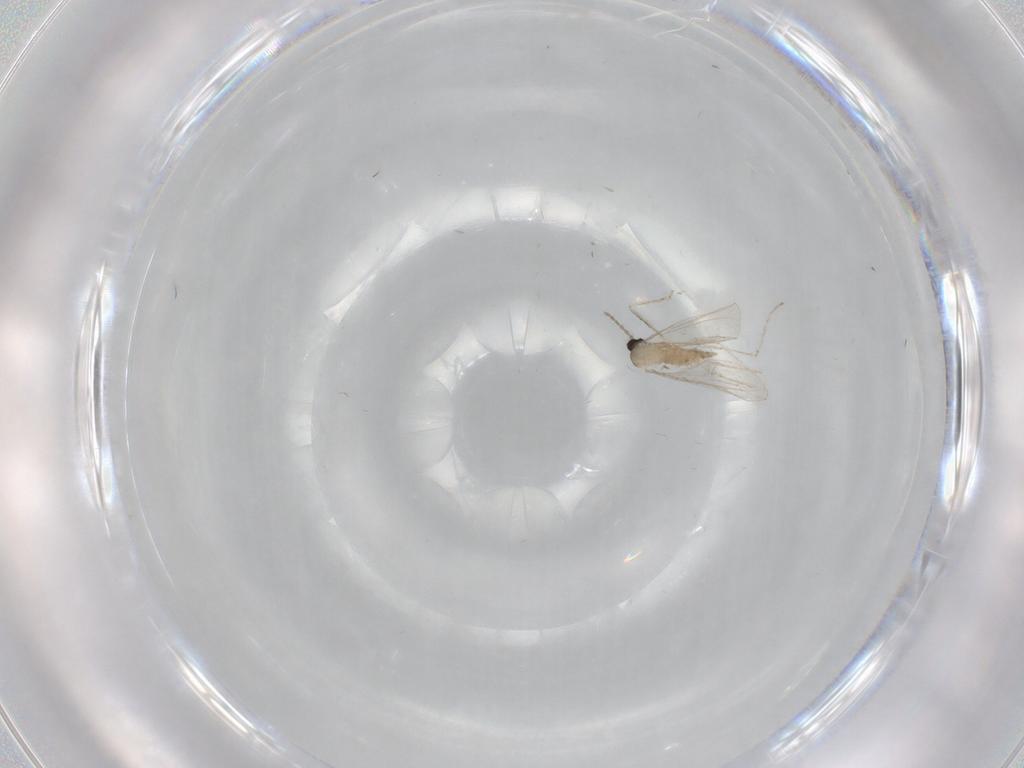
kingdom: Animalia
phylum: Arthropoda
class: Insecta
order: Diptera
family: Cecidomyiidae
